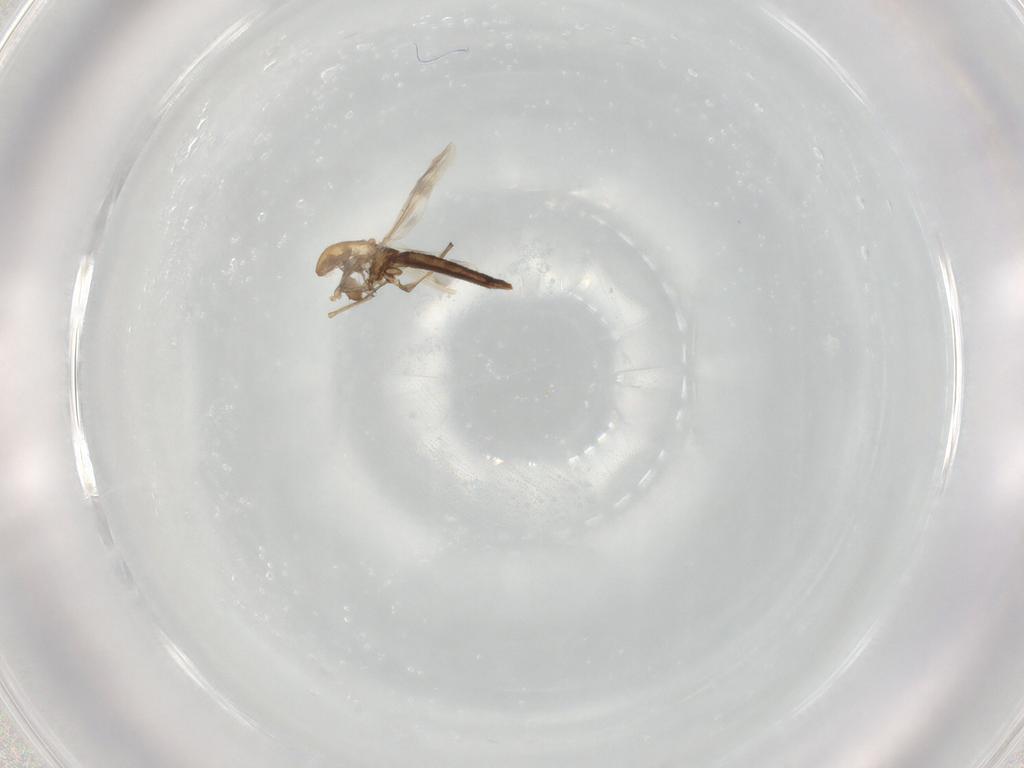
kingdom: Animalia
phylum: Arthropoda
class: Insecta
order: Diptera
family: Chironomidae
